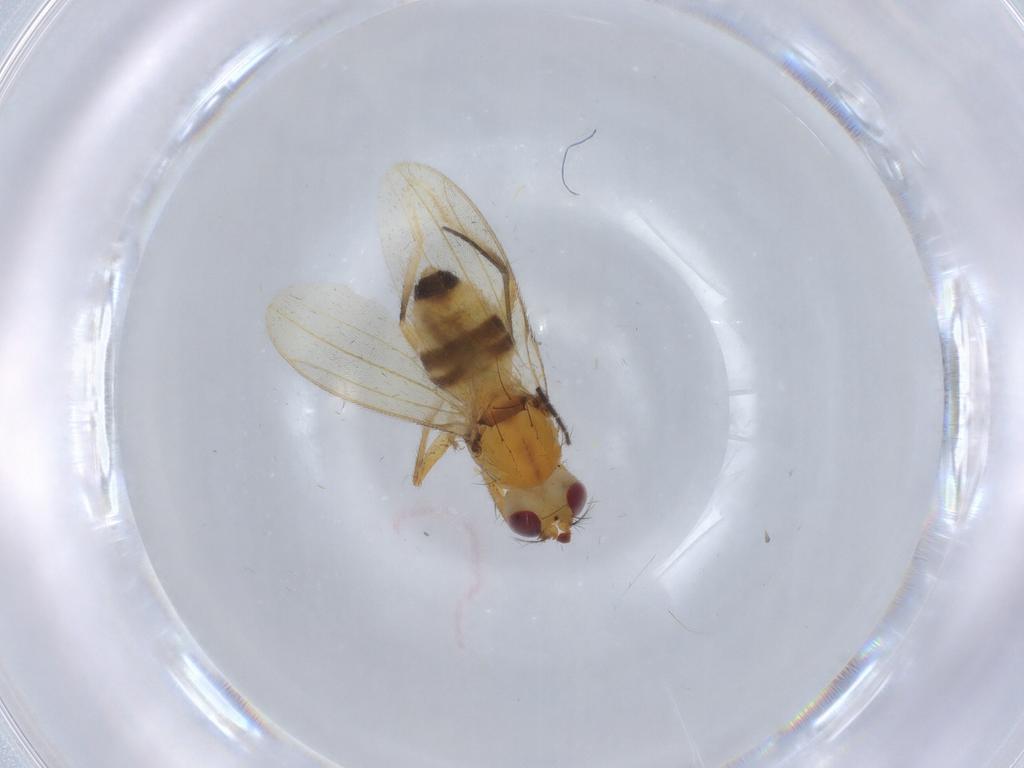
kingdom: Animalia
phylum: Arthropoda
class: Insecta
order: Diptera
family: Periscelididae
